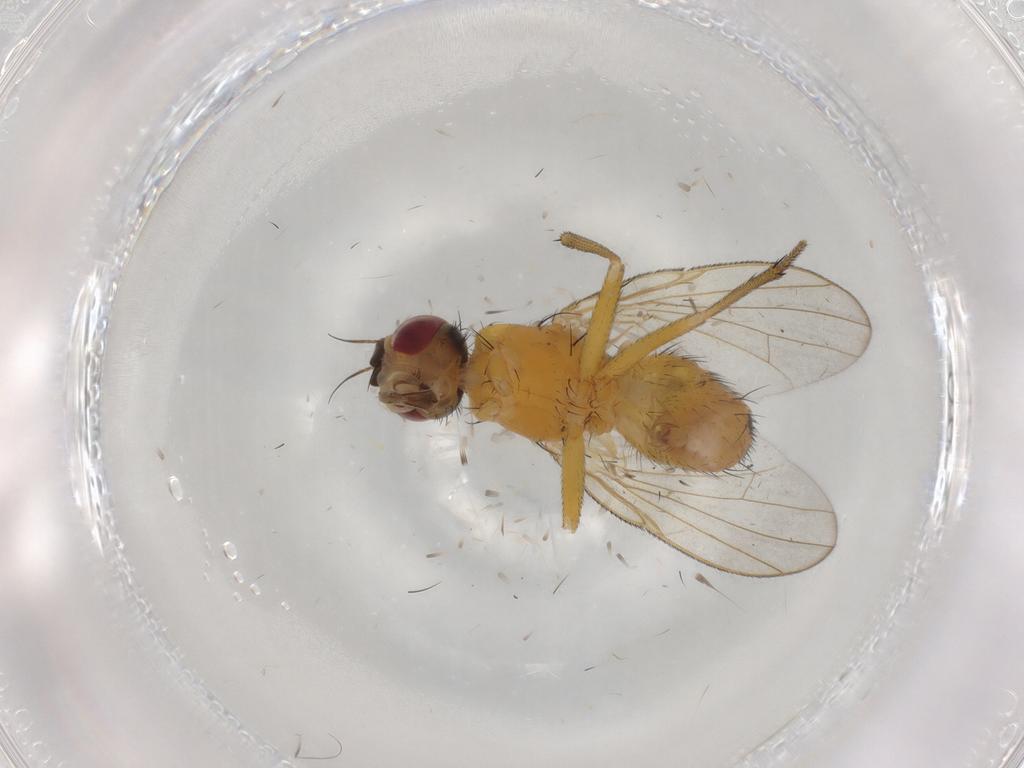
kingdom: Animalia
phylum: Arthropoda
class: Insecta
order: Diptera
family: Muscidae
